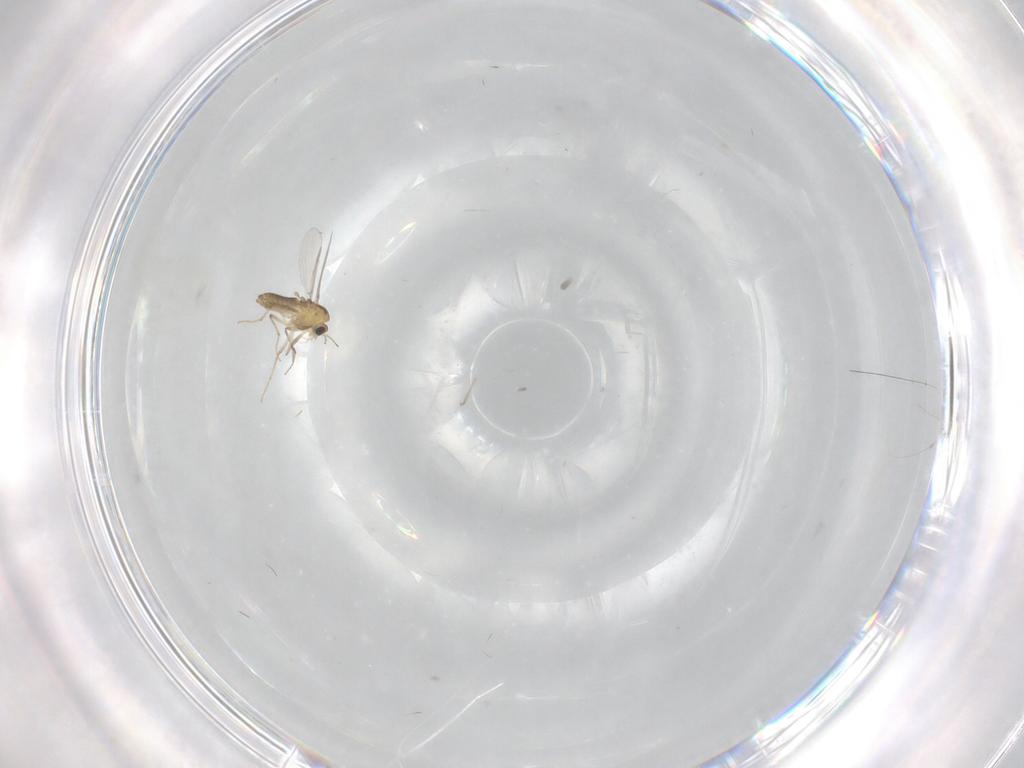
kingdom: Animalia
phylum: Arthropoda
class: Insecta
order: Diptera
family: Chironomidae
